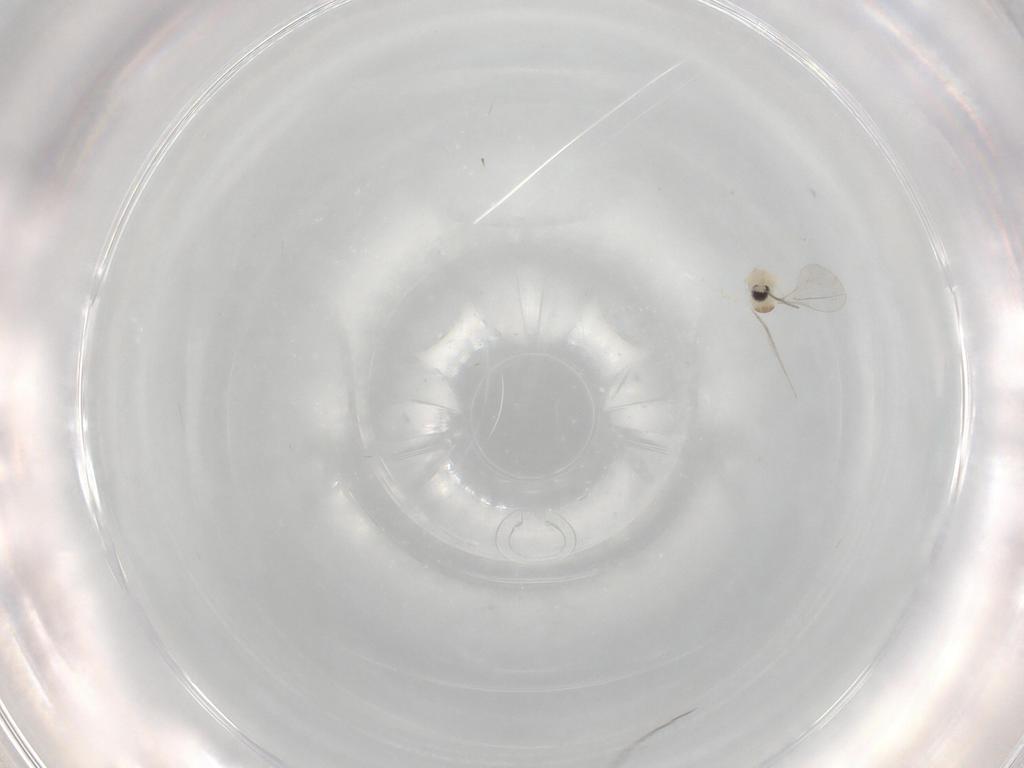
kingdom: Animalia
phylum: Arthropoda
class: Insecta
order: Diptera
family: Cecidomyiidae
